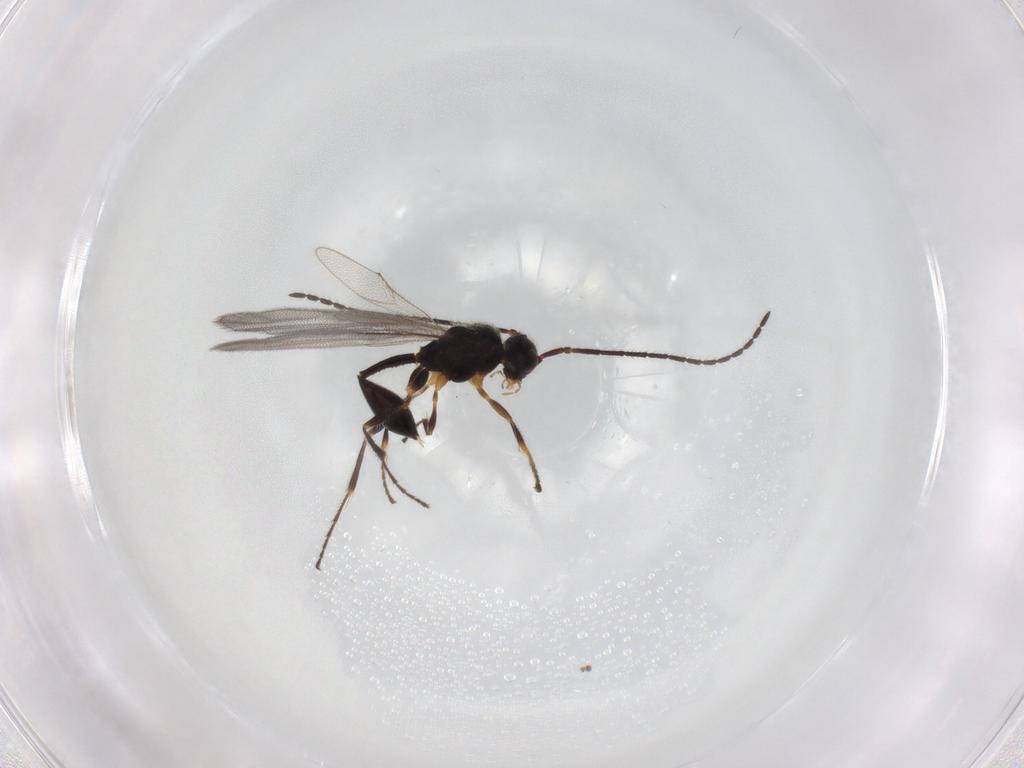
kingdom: Animalia
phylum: Arthropoda
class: Insecta
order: Hymenoptera
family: Diapriidae
